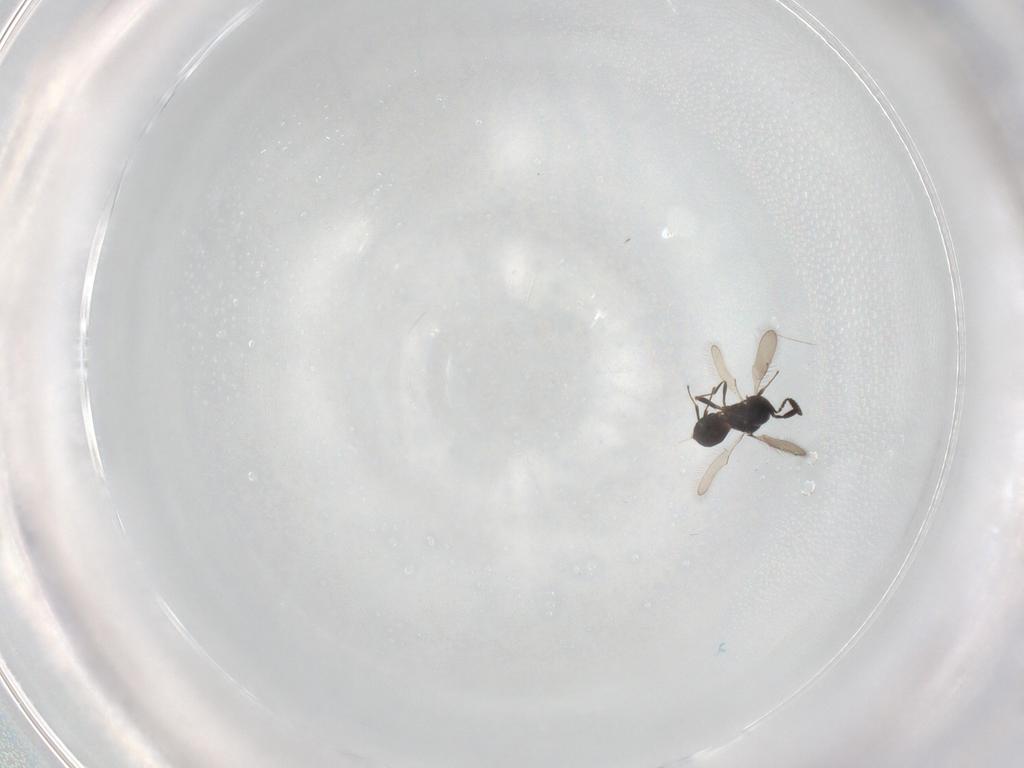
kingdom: Animalia
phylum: Arthropoda
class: Insecta
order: Hymenoptera
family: Scelionidae
